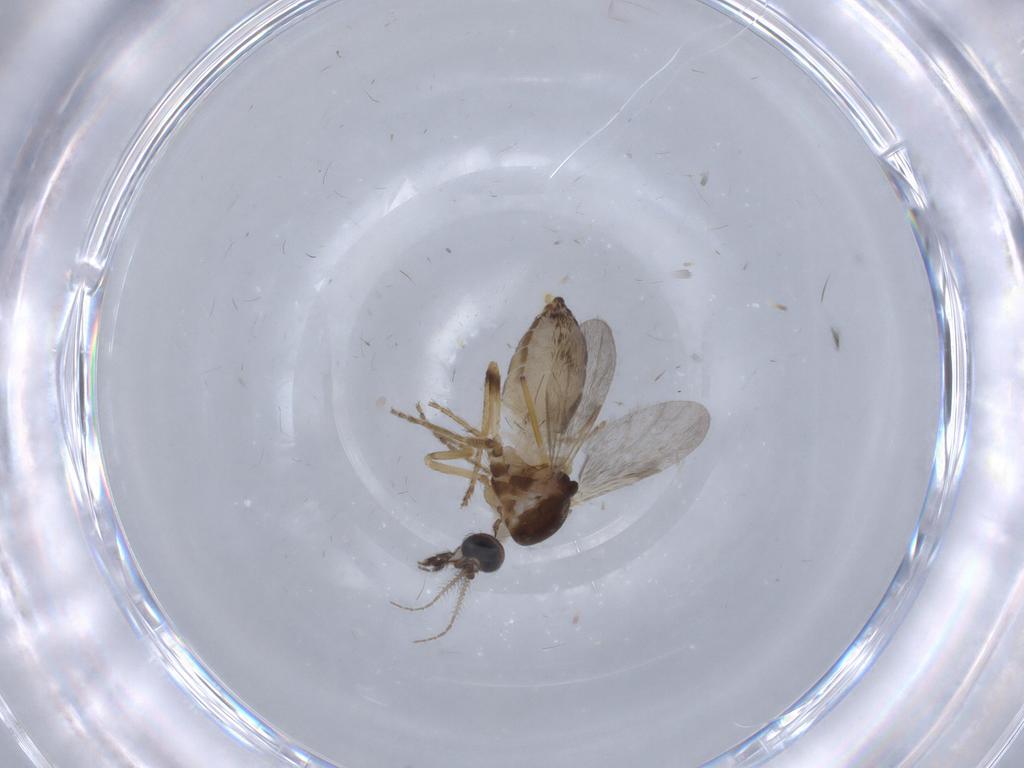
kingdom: Animalia
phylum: Arthropoda
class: Insecta
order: Diptera
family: Ceratopogonidae
